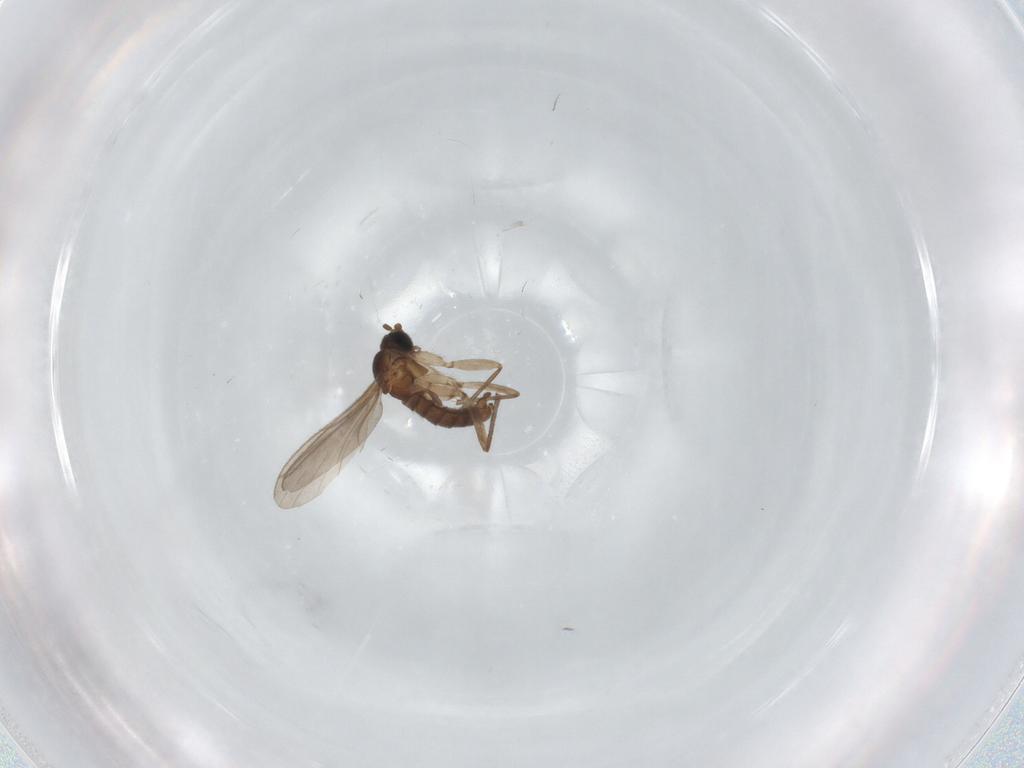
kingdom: Animalia
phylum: Arthropoda
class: Insecta
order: Diptera
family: Sciaridae
